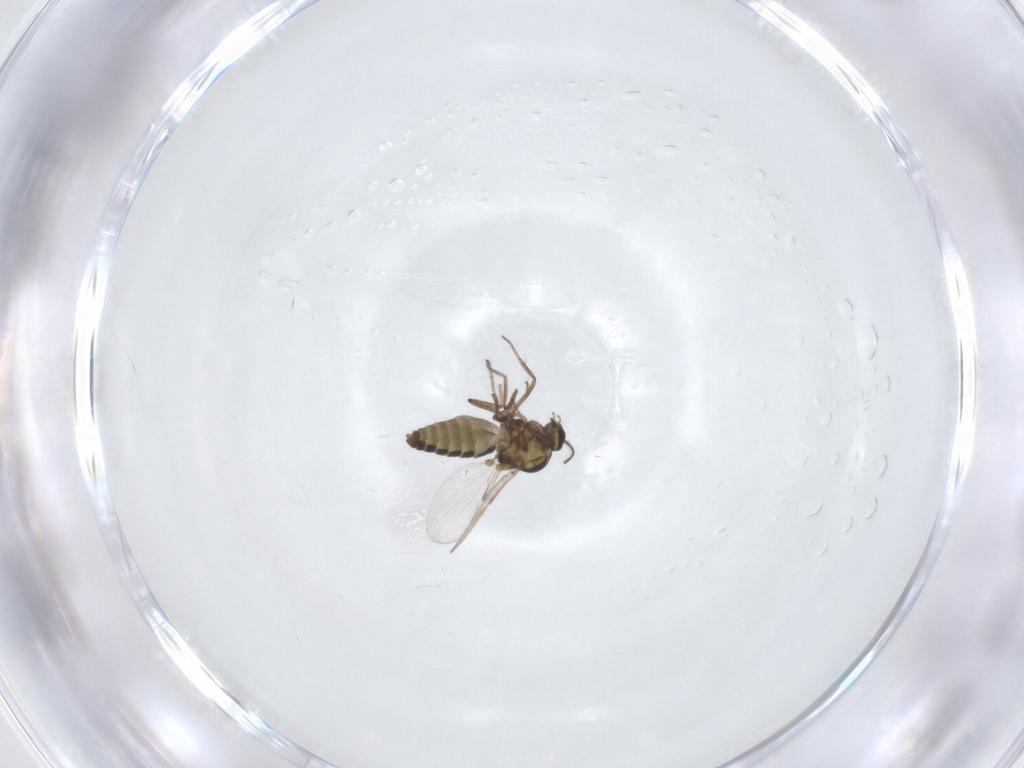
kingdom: Animalia
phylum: Arthropoda
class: Insecta
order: Diptera
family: Ceratopogonidae
